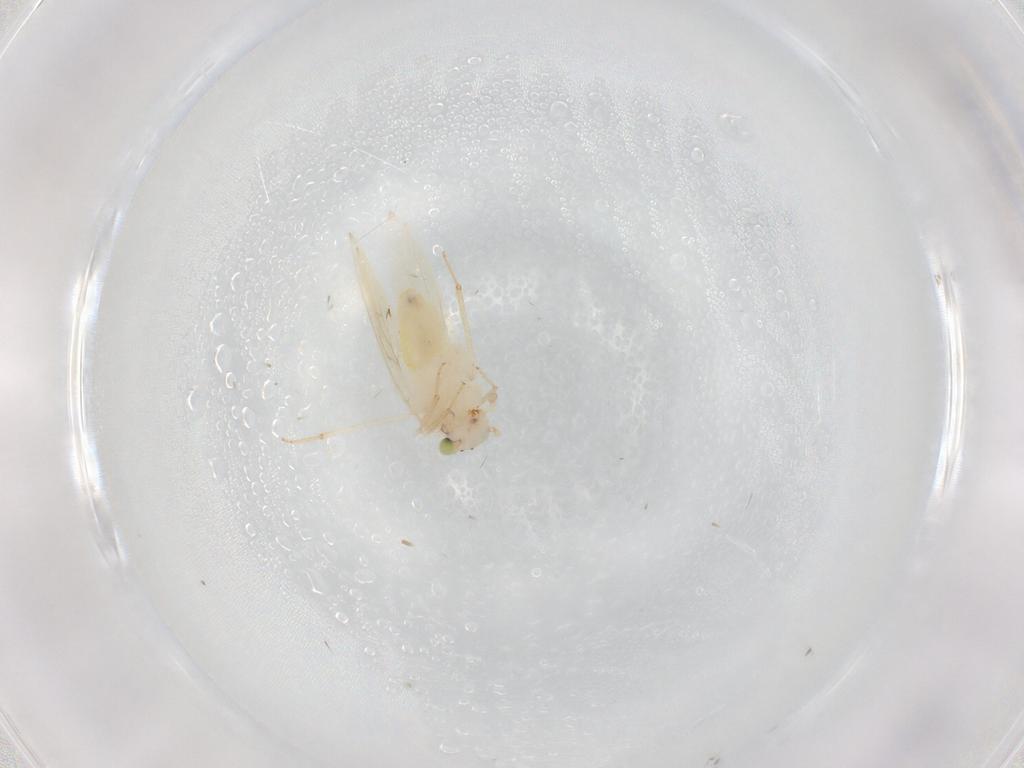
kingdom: Animalia
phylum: Arthropoda
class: Insecta
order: Psocodea
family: Lepidopsocidae
